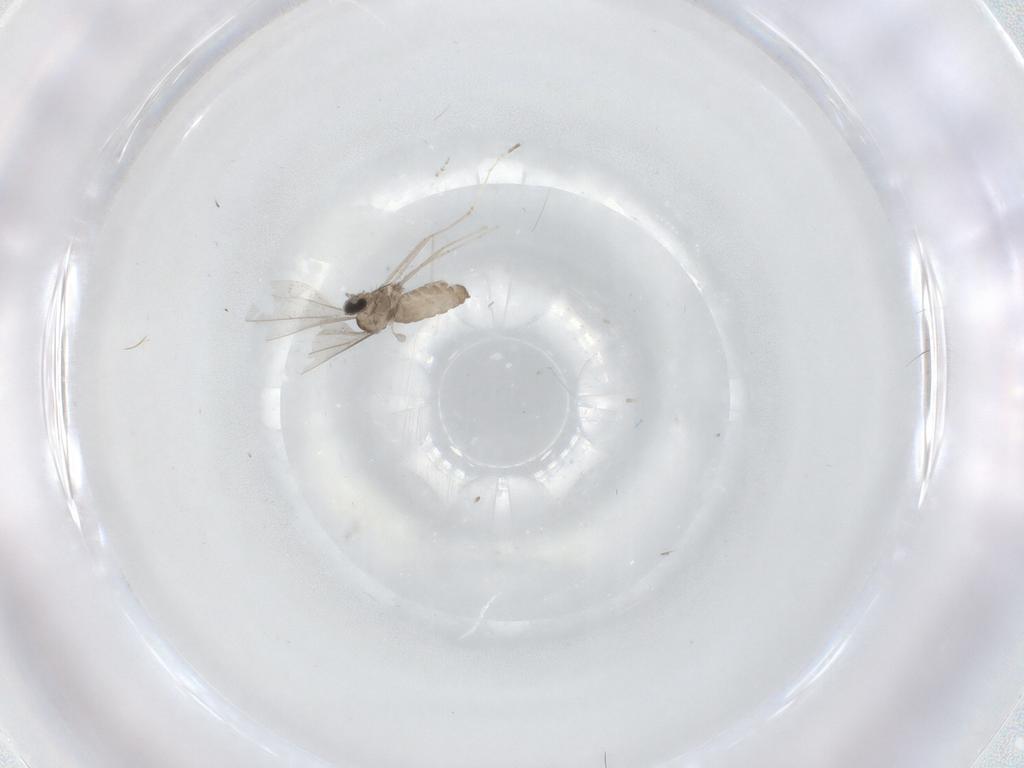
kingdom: Animalia
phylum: Arthropoda
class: Insecta
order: Diptera
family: Cecidomyiidae
